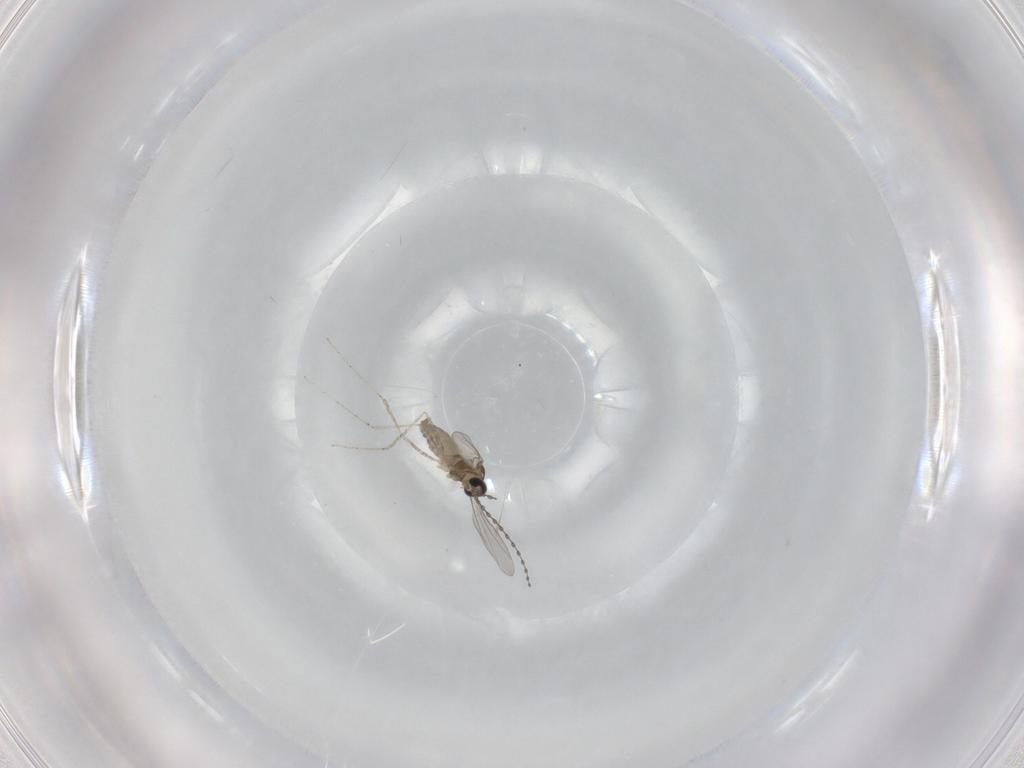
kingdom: Animalia
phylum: Arthropoda
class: Insecta
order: Diptera
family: Cecidomyiidae
